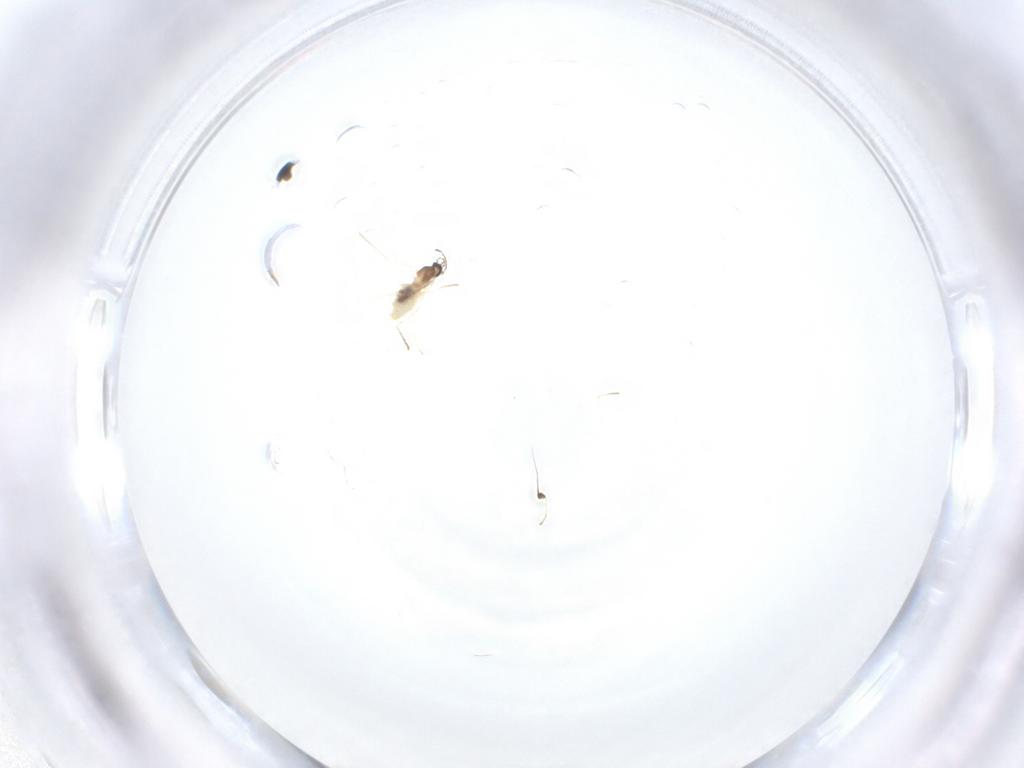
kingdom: Animalia
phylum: Arthropoda
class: Insecta
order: Diptera
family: Cecidomyiidae
